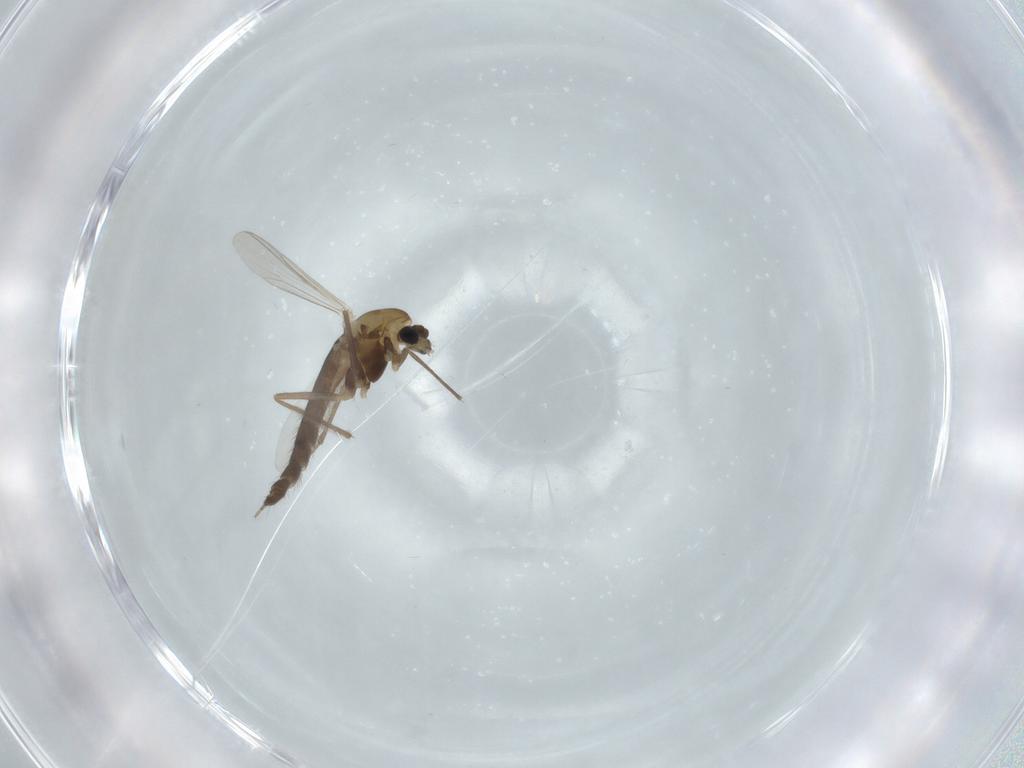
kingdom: Animalia
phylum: Arthropoda
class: Insecta
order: Diptera
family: Chironomidae
